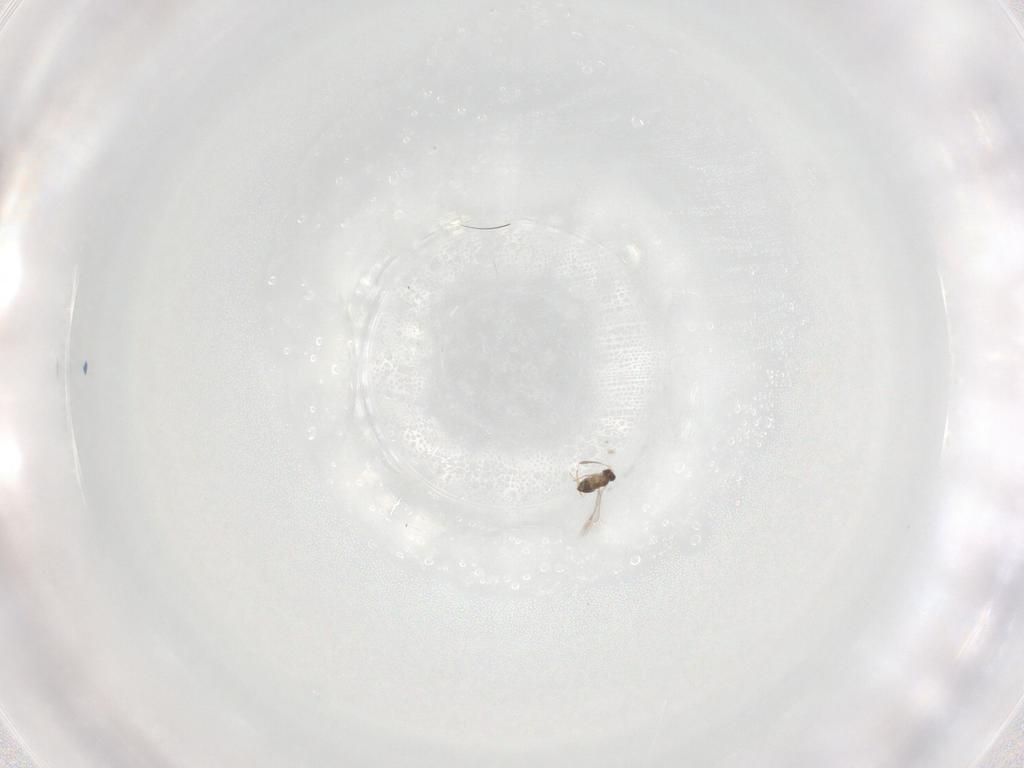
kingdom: Animalia
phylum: Arthropoda
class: Insecta
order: Hymenoptera
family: Mymaridae
